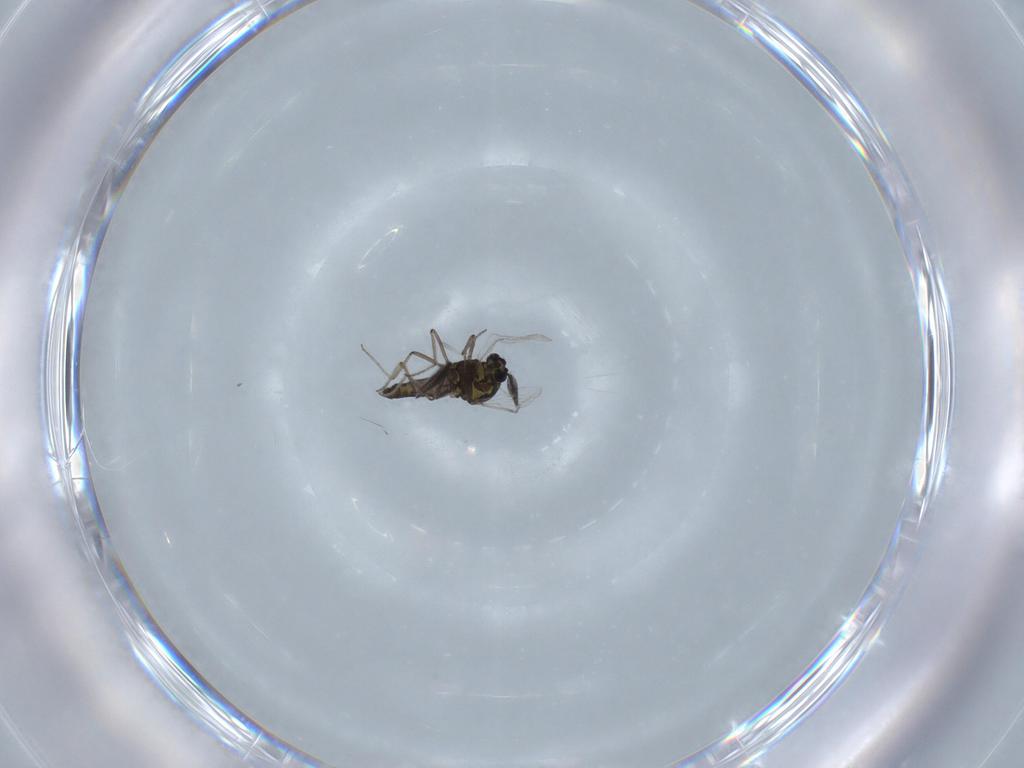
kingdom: Animalia
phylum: Arthropoda
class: Insecta
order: Diptera
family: Ceratopogonidae
